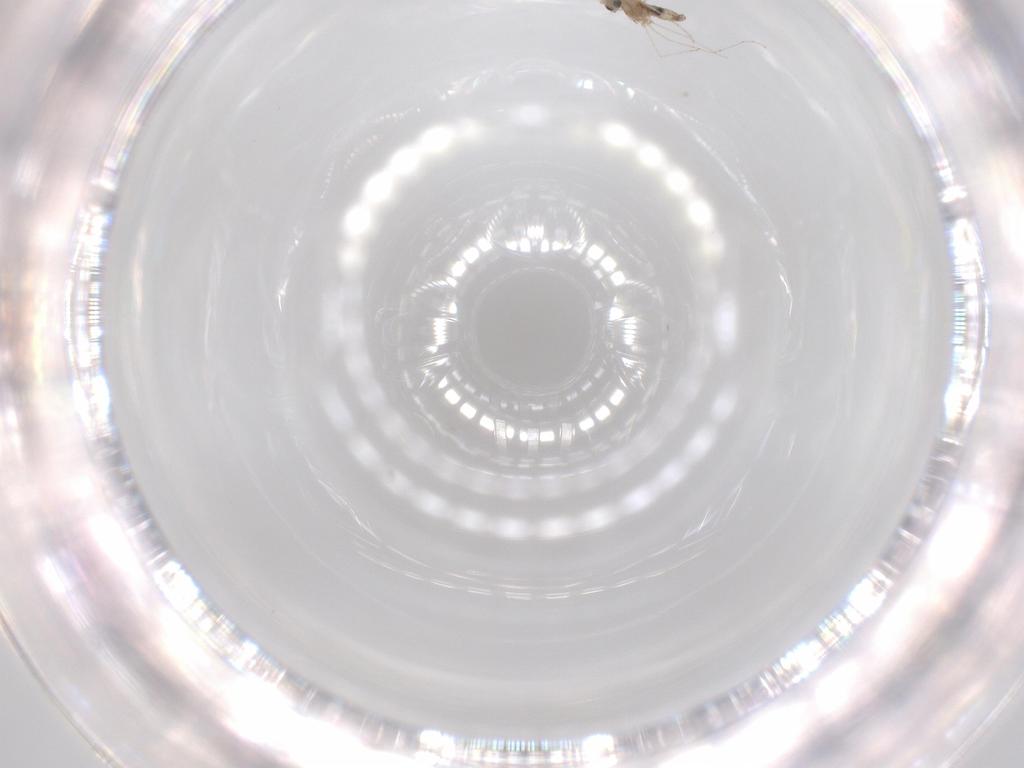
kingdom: Animalia
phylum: Arthropoda
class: Insecta
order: Diptera
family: Cecidomyiidae
